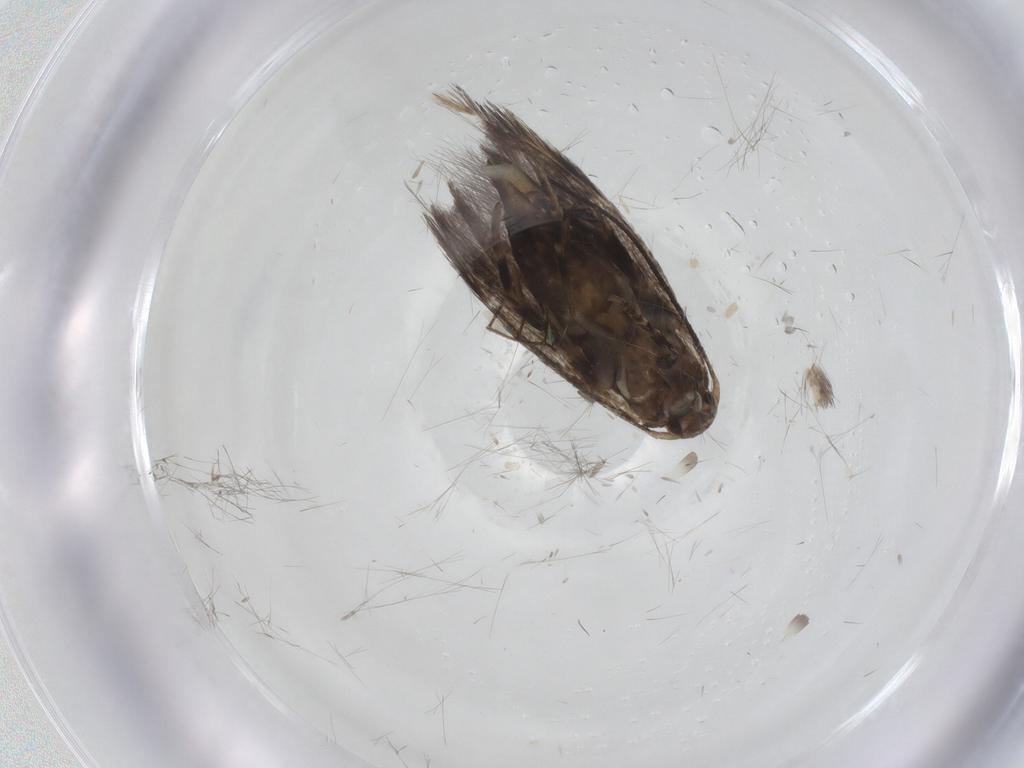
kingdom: Animalia
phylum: Arthropoda
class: Insecta
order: Lepidoptera
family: Elachistidae
